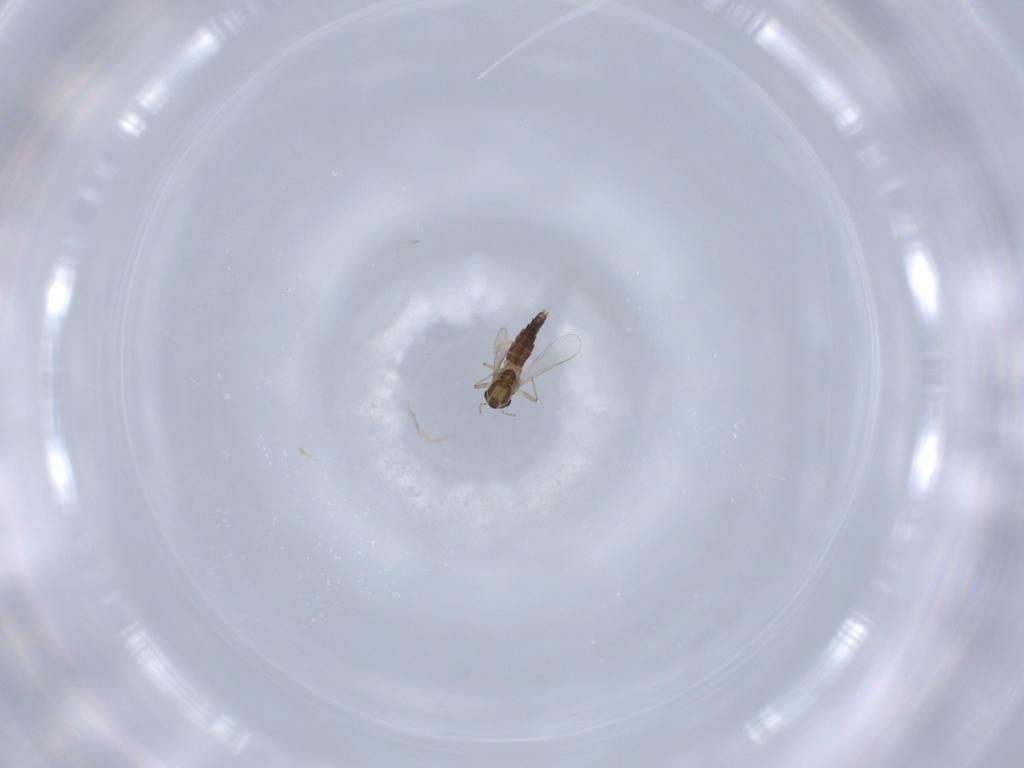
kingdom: Animalia
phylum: Arthropoda
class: Insecta
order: Diptera
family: Chironomidae
